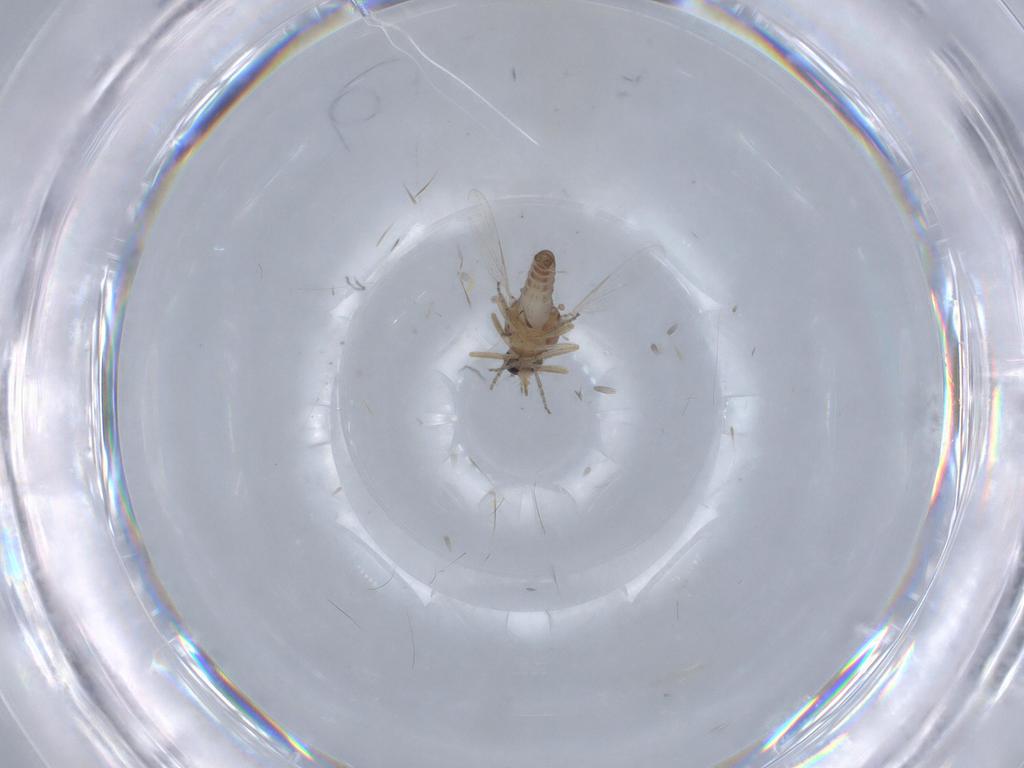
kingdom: Animalia
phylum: Arthropoda
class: Insecta
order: Diptera
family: Ceratopogonidae
